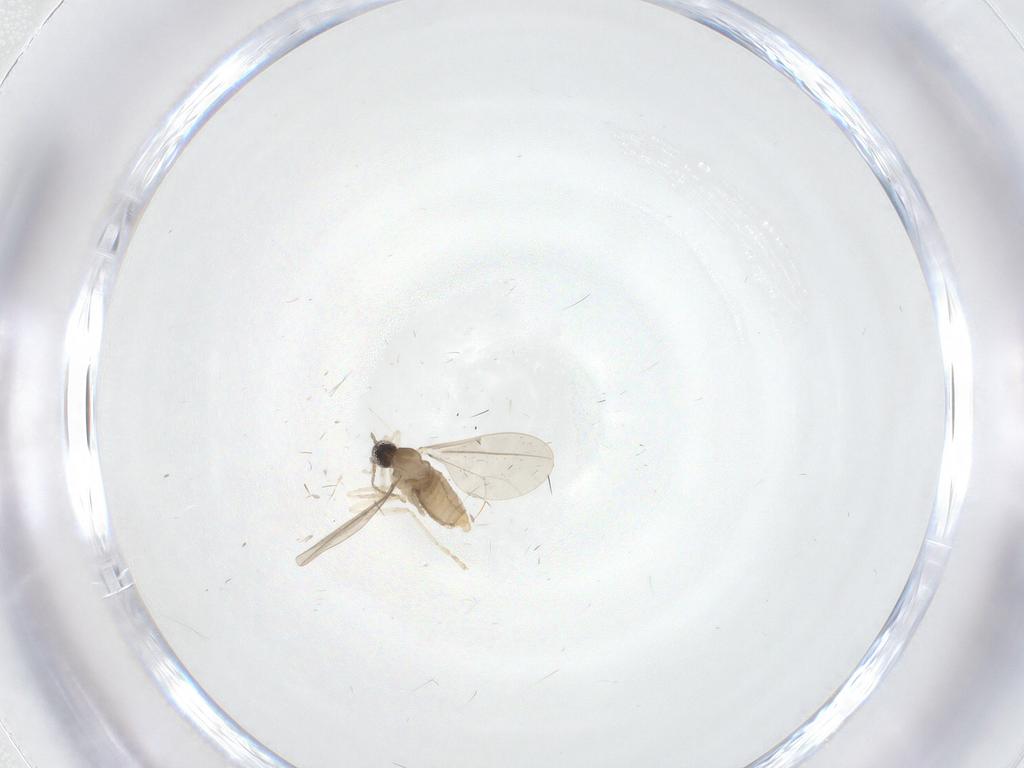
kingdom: Animalia
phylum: Arthropoda
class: Insecta
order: Diptera
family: Cecidomyiidae
